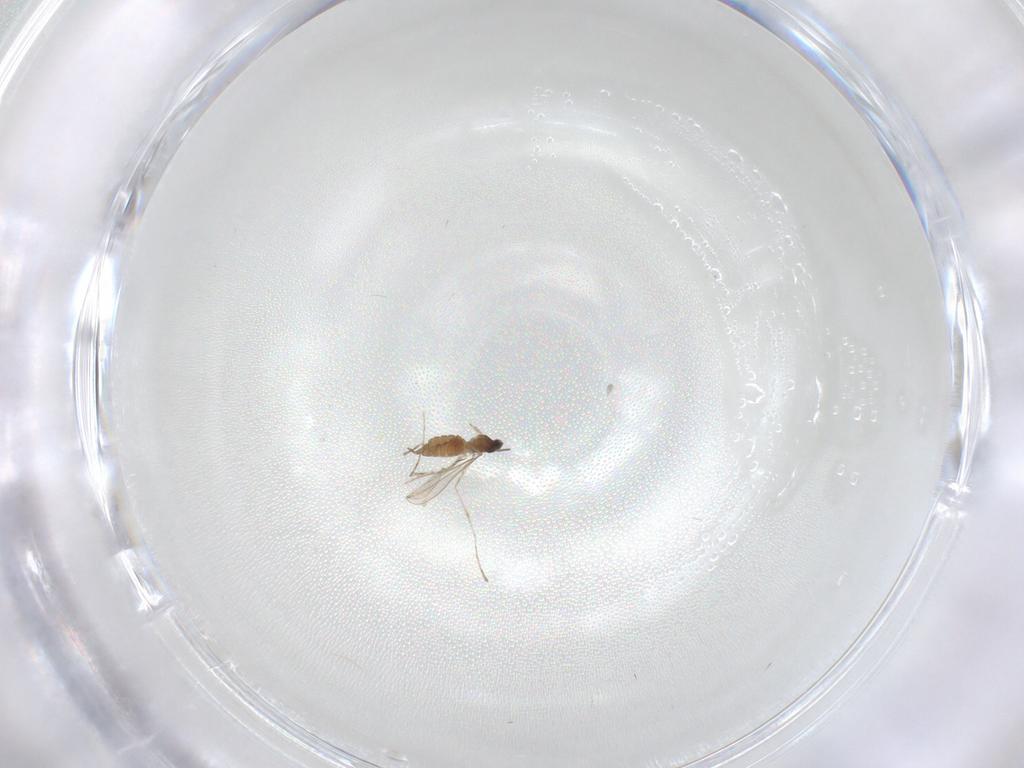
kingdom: Animalia
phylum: Arthropoda
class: Insecta
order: Diptera
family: Cecidomyiidae
